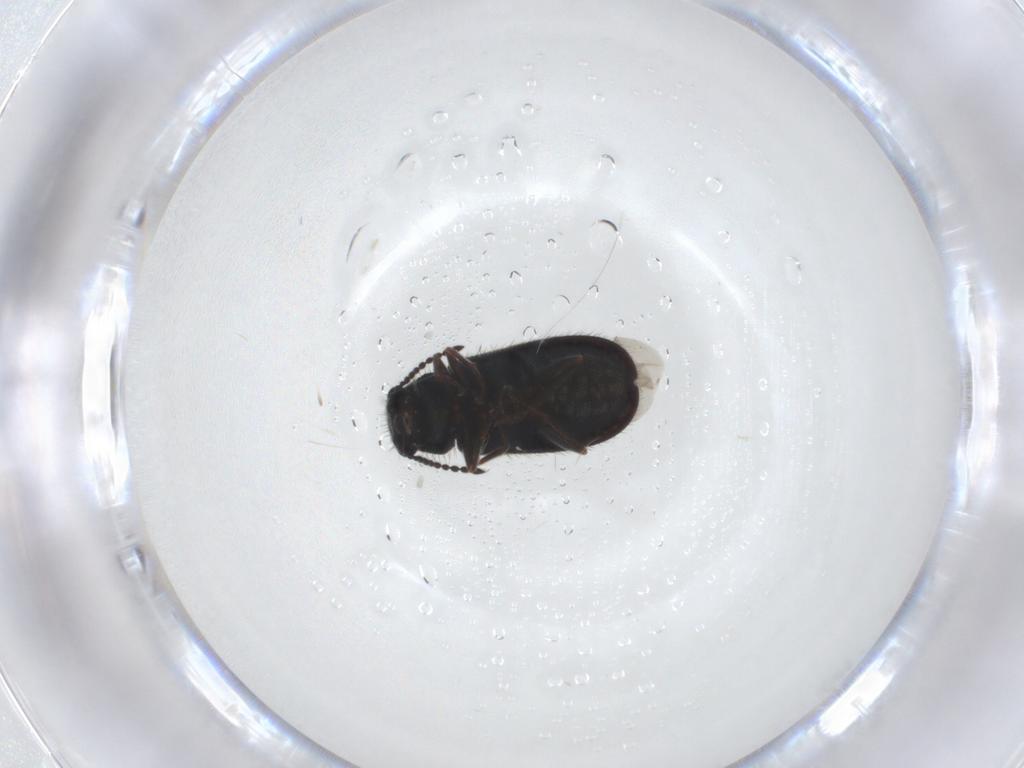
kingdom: Animalia
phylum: Arthropoda
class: Insecta
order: Coleoptera
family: Melyridae
